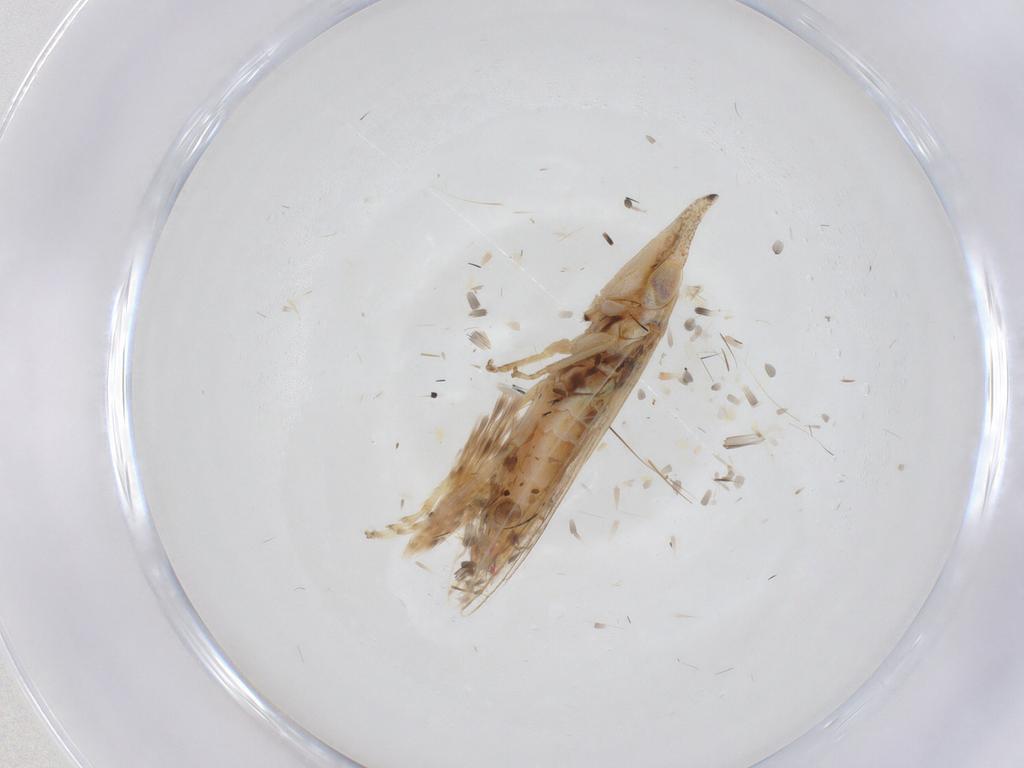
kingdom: Animalia
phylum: Arthropoda
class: Insecta
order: Hemiptera
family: Cicadellidae
